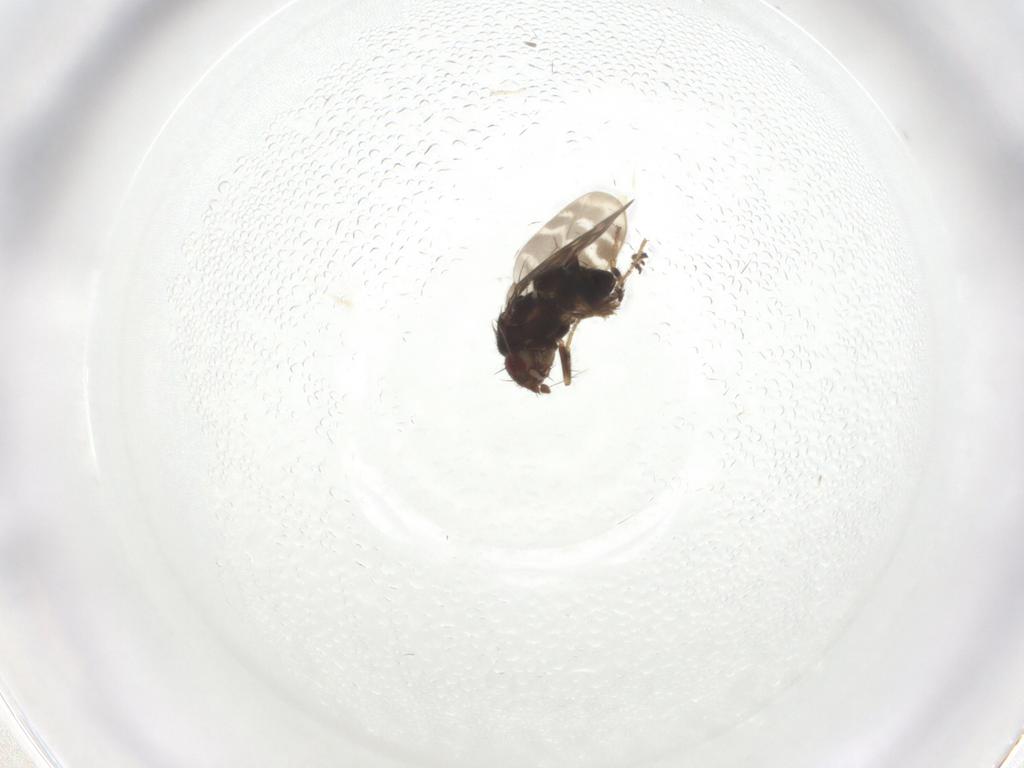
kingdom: Animalia
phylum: Arthropoda
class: Insecta
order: Diptera
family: Sphaeroceridae
